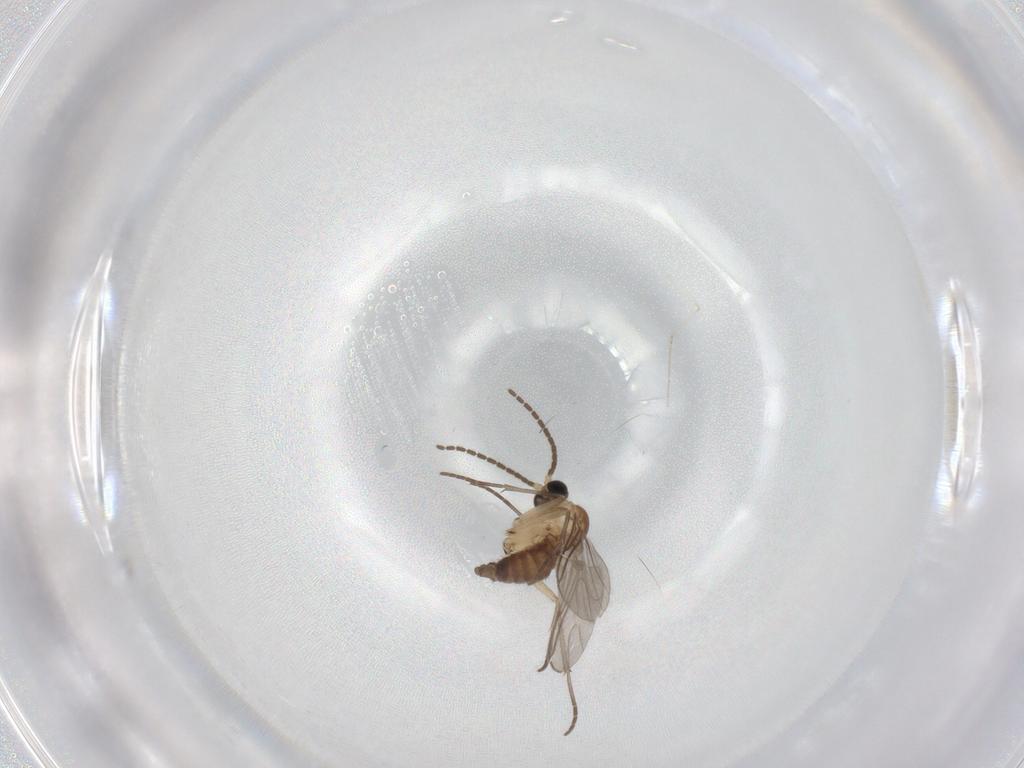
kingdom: Animalia
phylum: Arthropoda
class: Insecta
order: Diptera
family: Sciaridae
